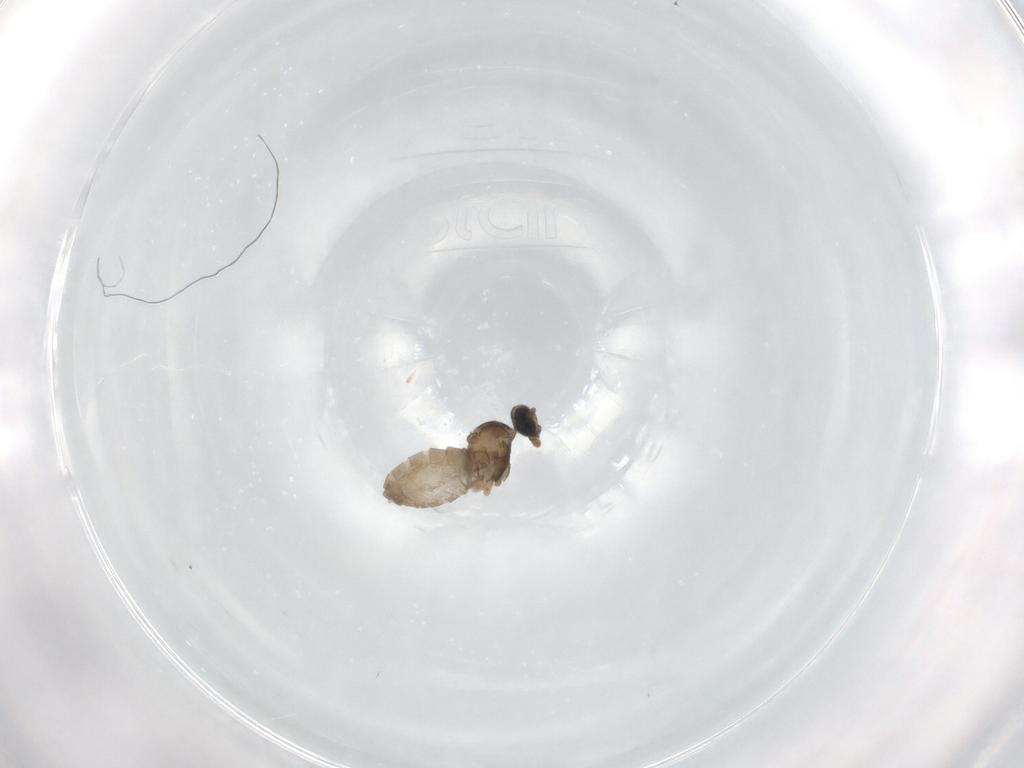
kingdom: Animalia
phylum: Arthropoda
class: Insecta
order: Diptera
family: Cecidomyiidae
